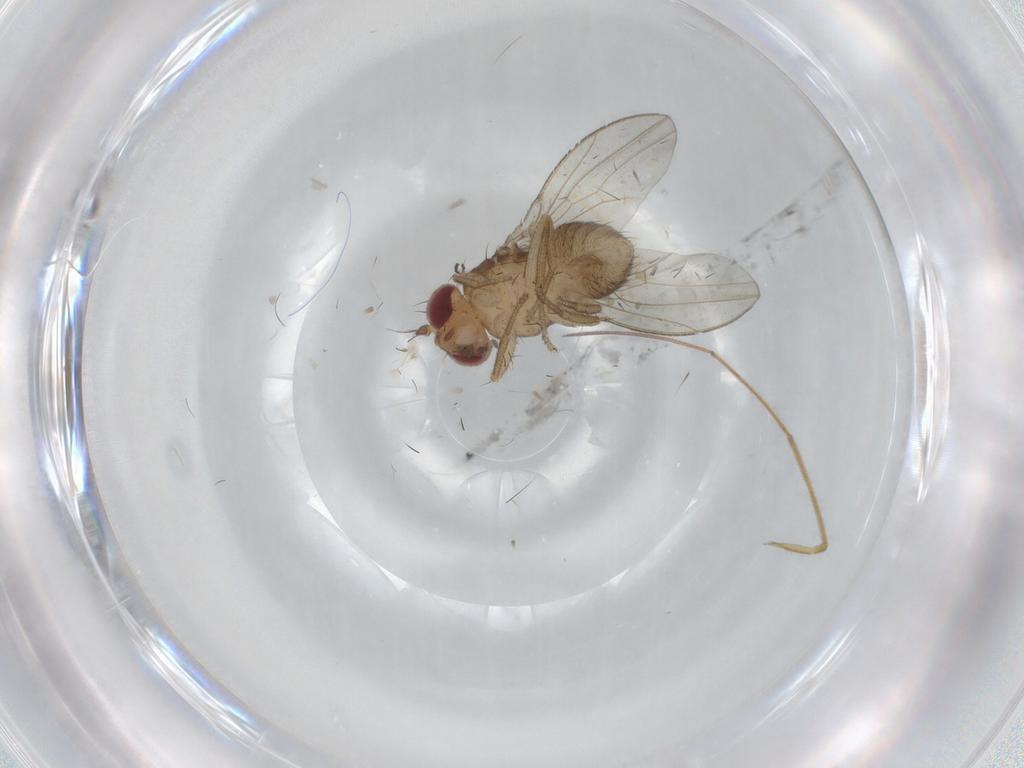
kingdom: Animalia
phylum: Arthropoda
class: Insecta
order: Diptera
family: Drosophilidae
